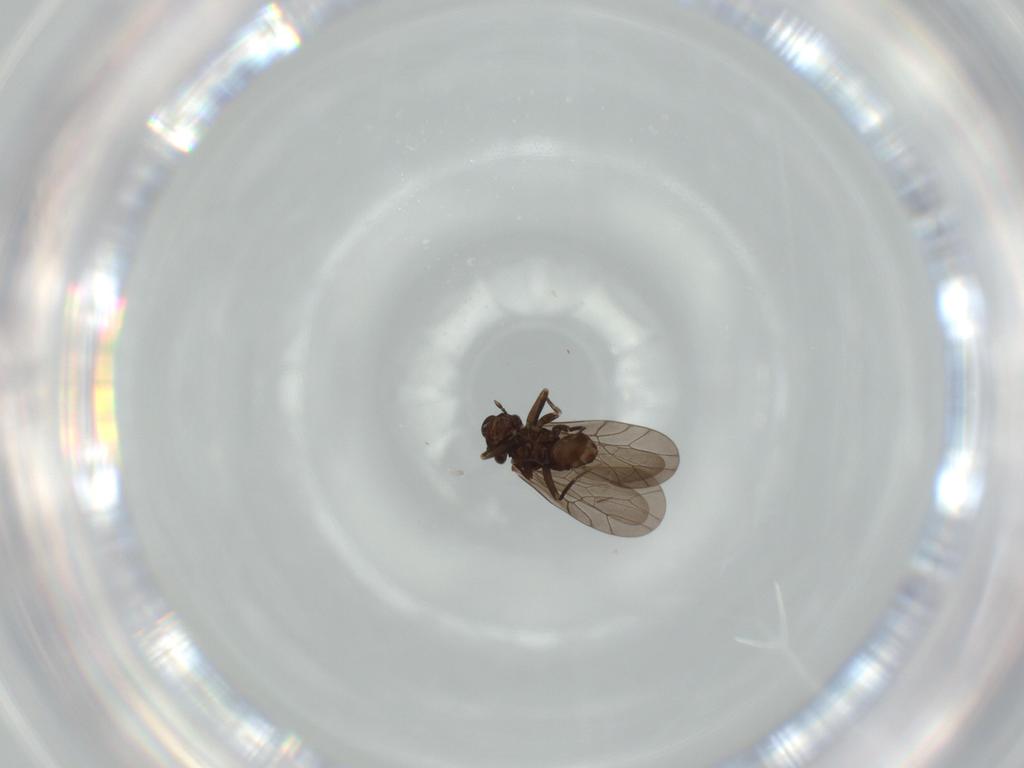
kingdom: Animalia
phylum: Arthropoda
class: Insecta
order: Psocodea
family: Lepidopsocidae
